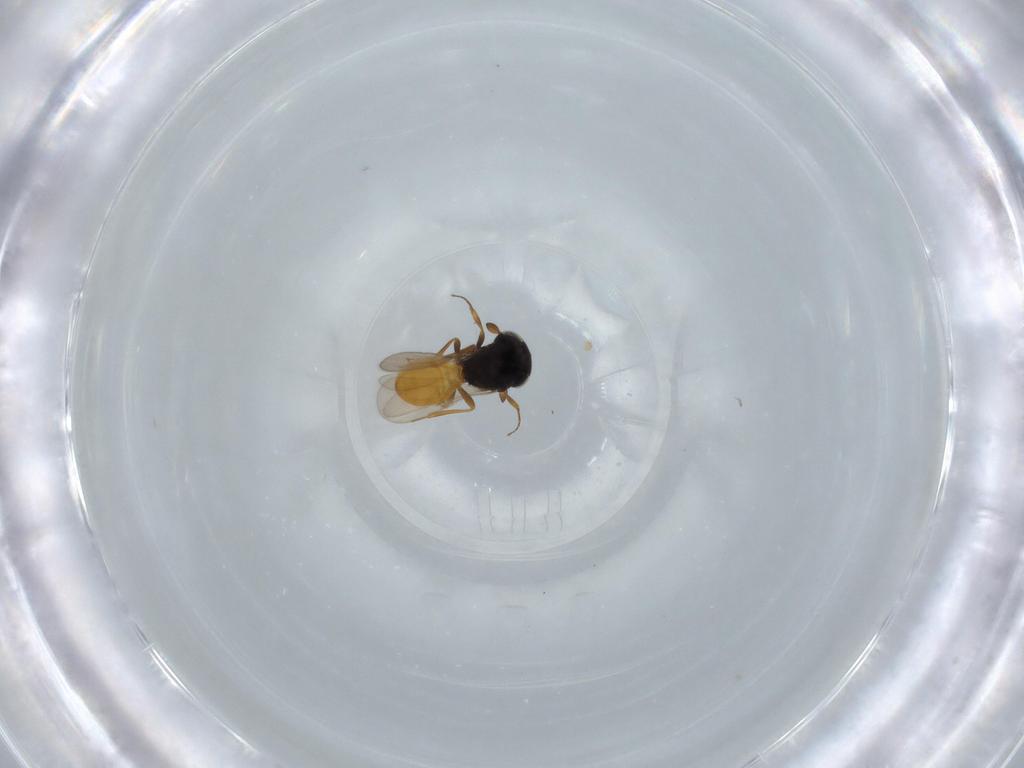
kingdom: Animalia
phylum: Arthropoda
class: Insecta
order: Hymenoptera
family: Scelionidae
